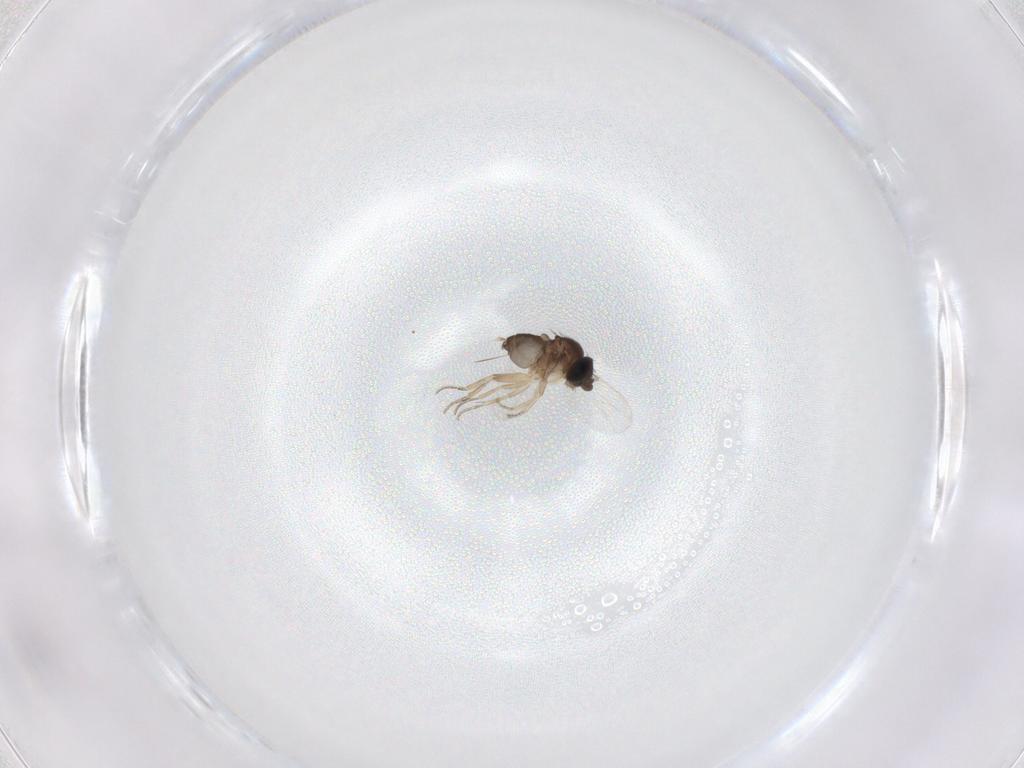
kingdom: Animalia
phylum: Arthropoda
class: Insecta
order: Diptera
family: Phoridae
